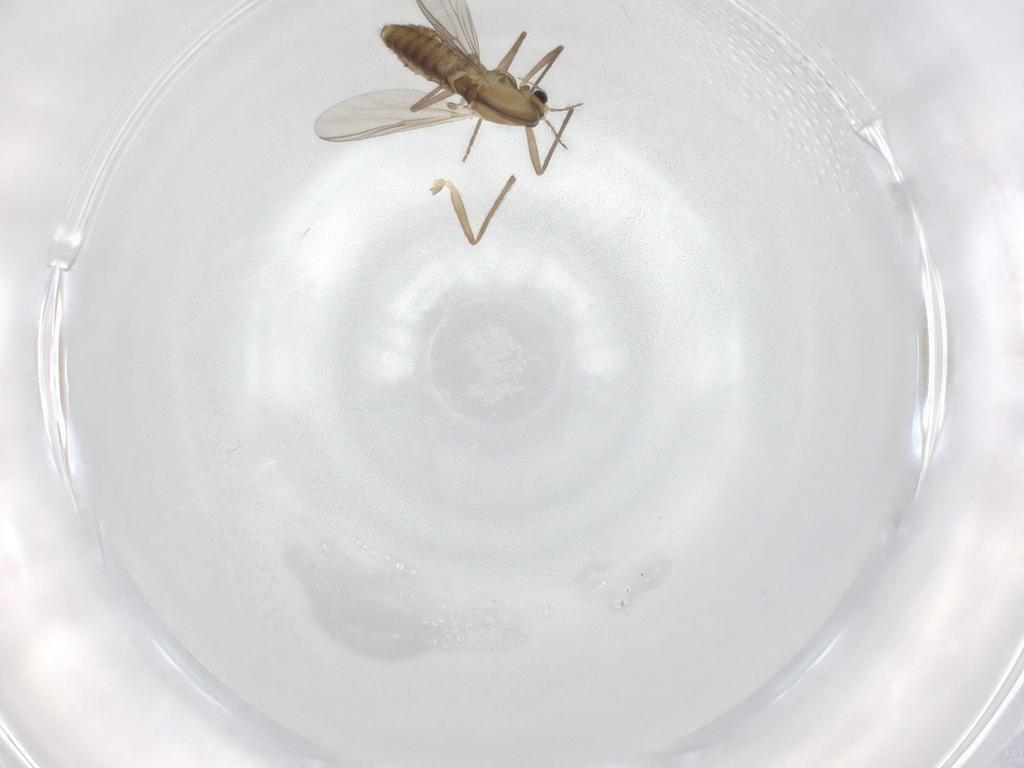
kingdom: Animalia
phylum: Arthropoda
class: Insecta
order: Diptera
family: Chironomidae
